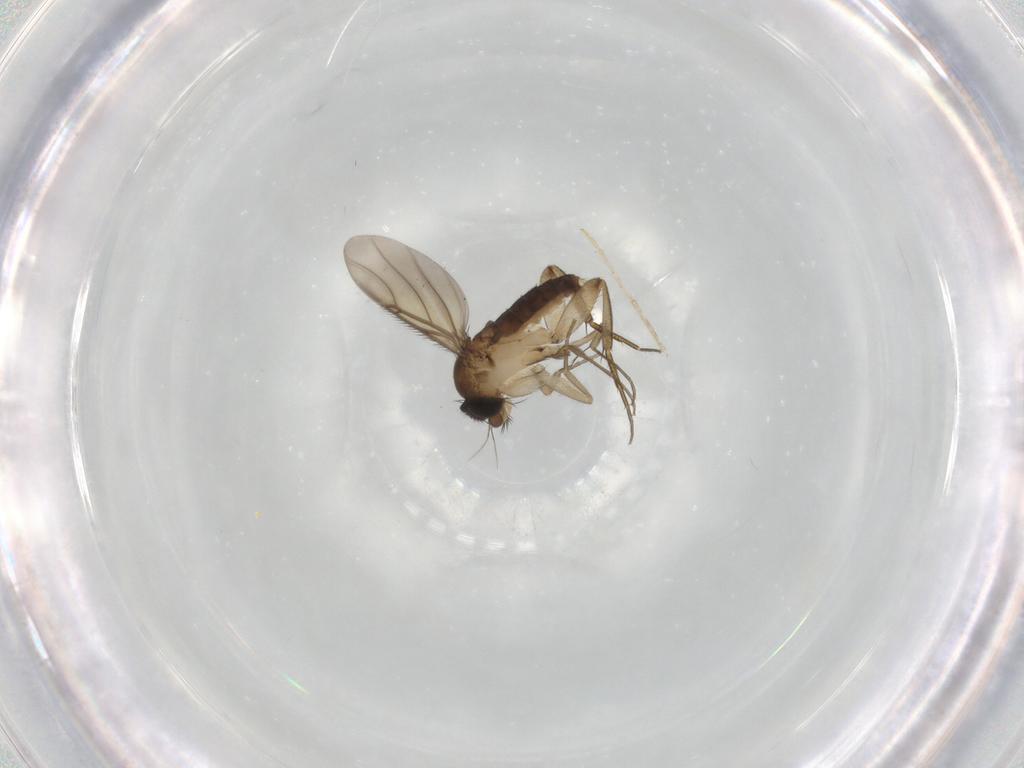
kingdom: Animalia
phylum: Arthropoda
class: Insecta
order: Diptera
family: Phoridae
